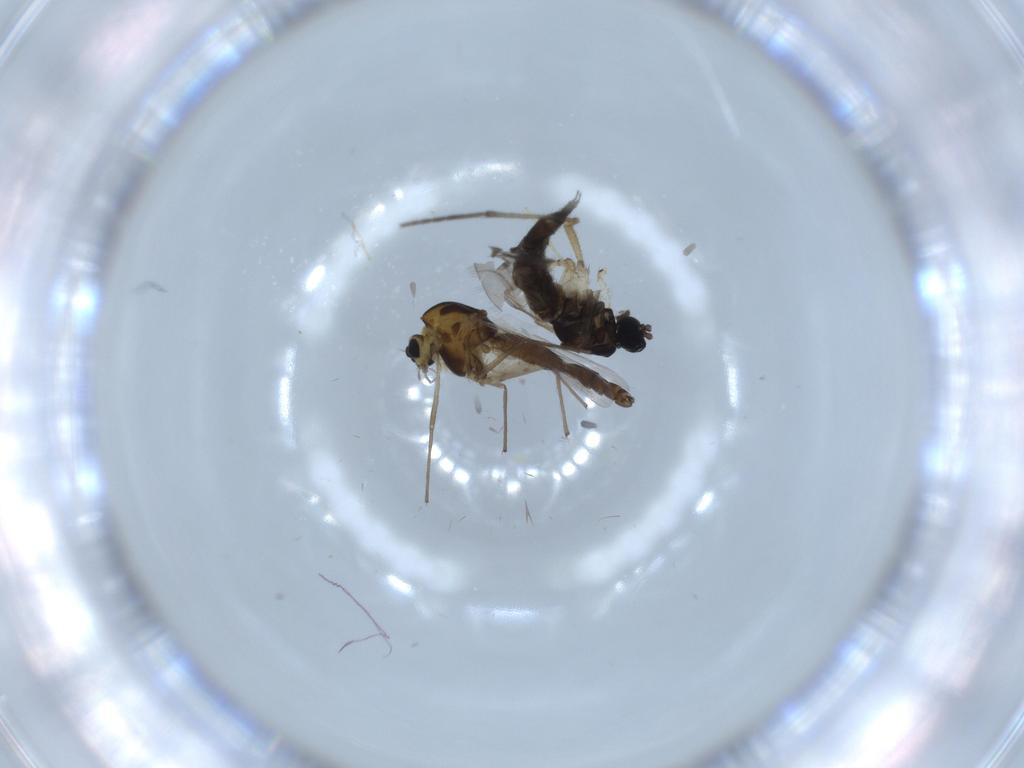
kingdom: Animalia
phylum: Arthropoda
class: Insecta
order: Diptera
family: Sciaridae
